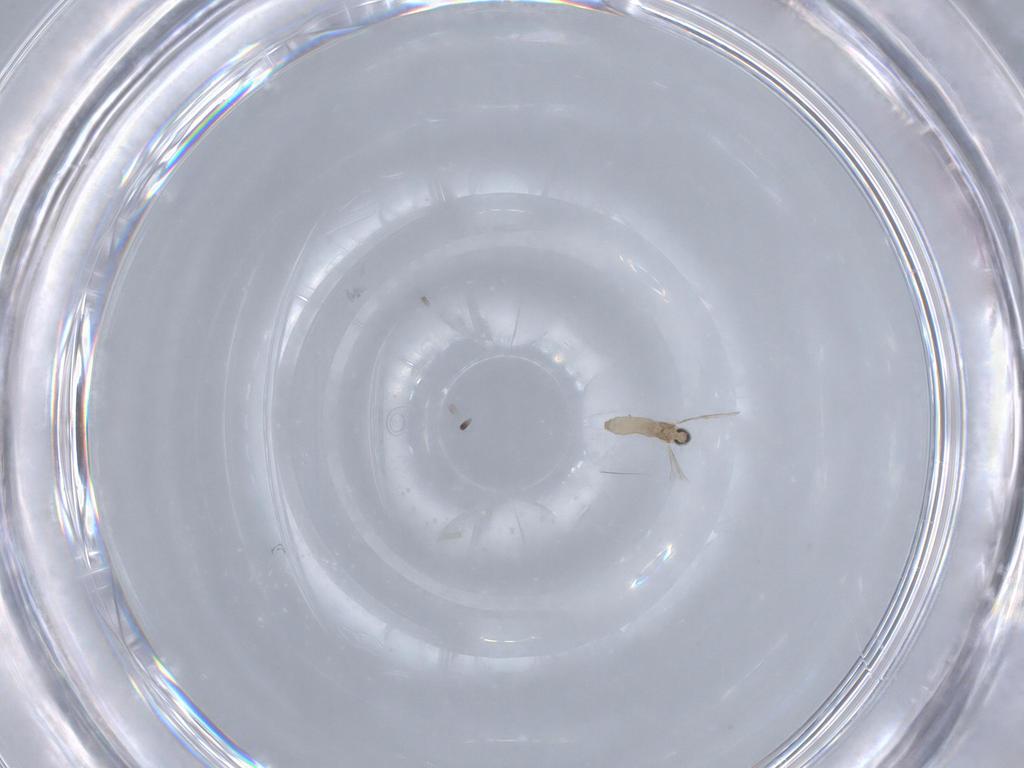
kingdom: Animalia
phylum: Arthropoda
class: Insecta
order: Diptera
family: Cecidomyiidae
